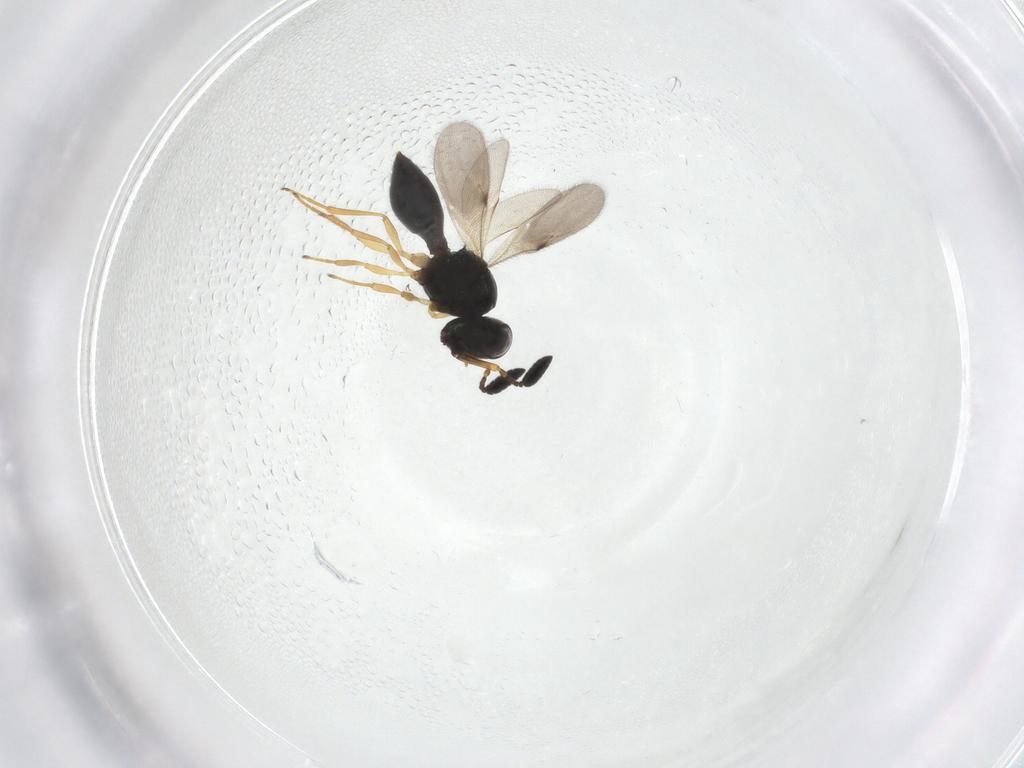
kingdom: Animalia
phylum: Arthropoda
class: Insecta
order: Hymenoptera
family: Scelionidae
